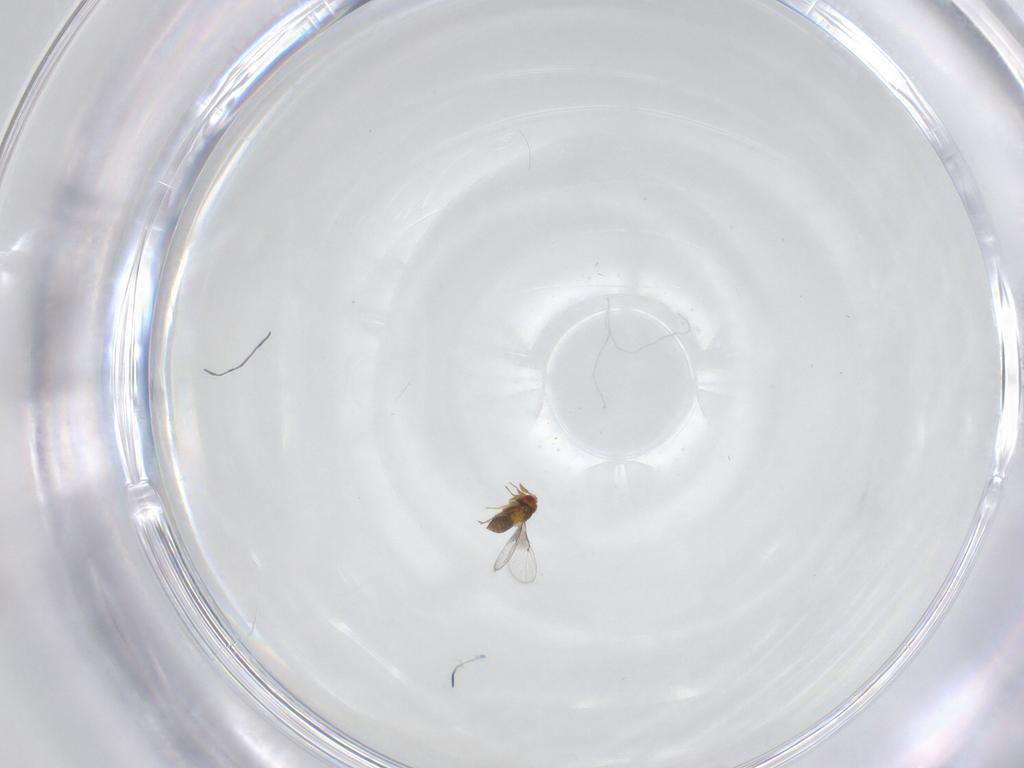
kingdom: Animalia
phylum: Arthropoda
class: Insecta
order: Hymenoptera
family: Trichogrammatidae
